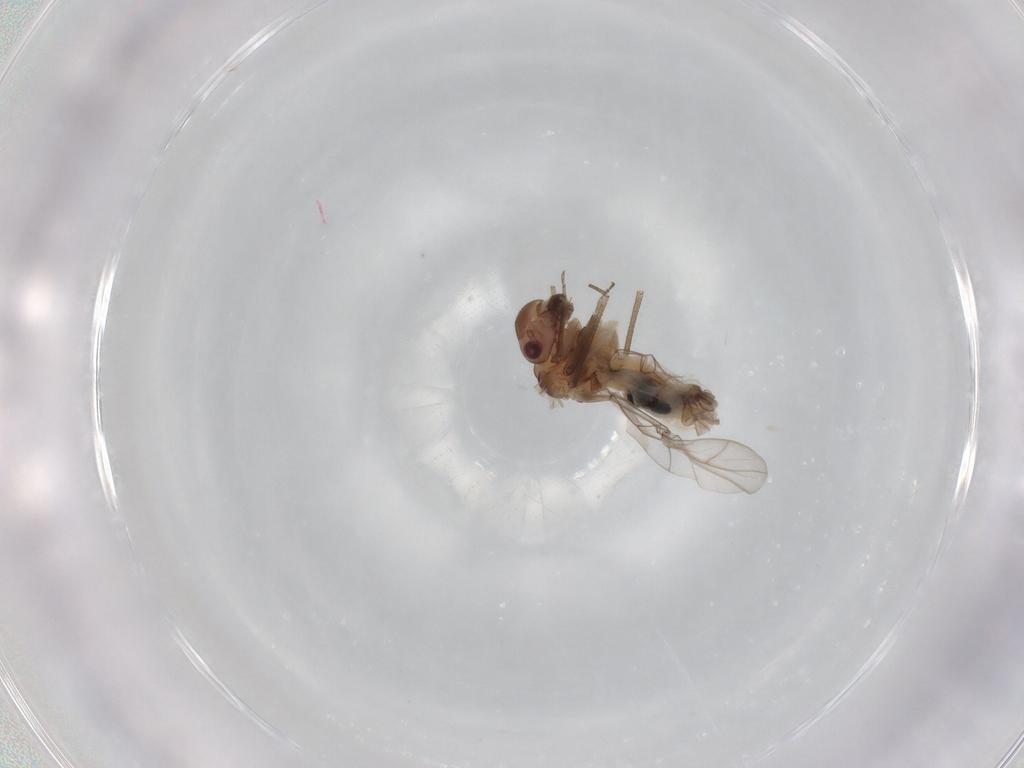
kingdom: Animalia
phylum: Arthropoda
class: Insecta
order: Psocodea
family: Peripsocidae
